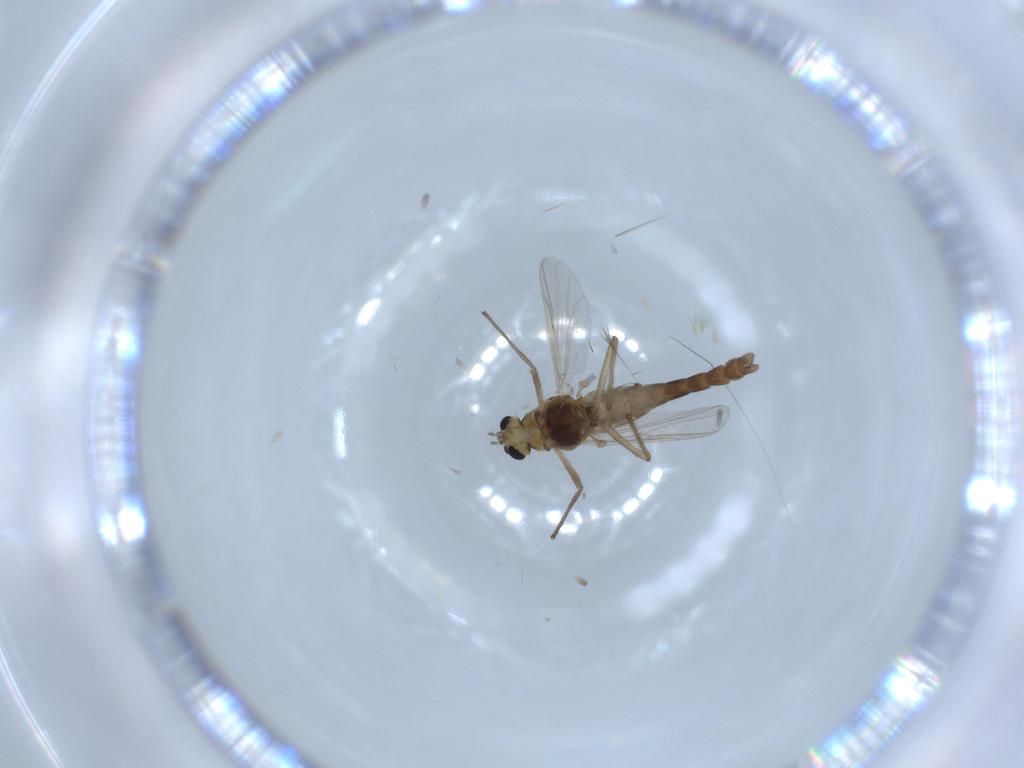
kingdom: Animalia
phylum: Arthropoda
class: Insecta
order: Diptera
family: Chironomidae
